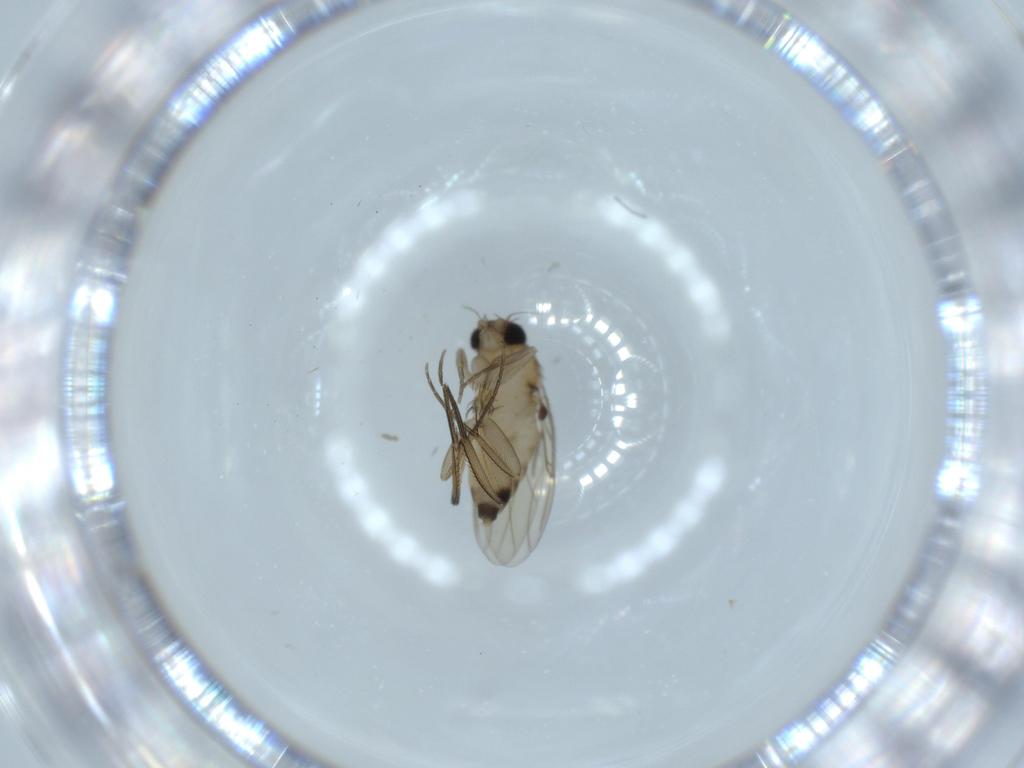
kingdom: Animalia
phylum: Arthropoda
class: Insecta
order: Diptera
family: Phoridae
